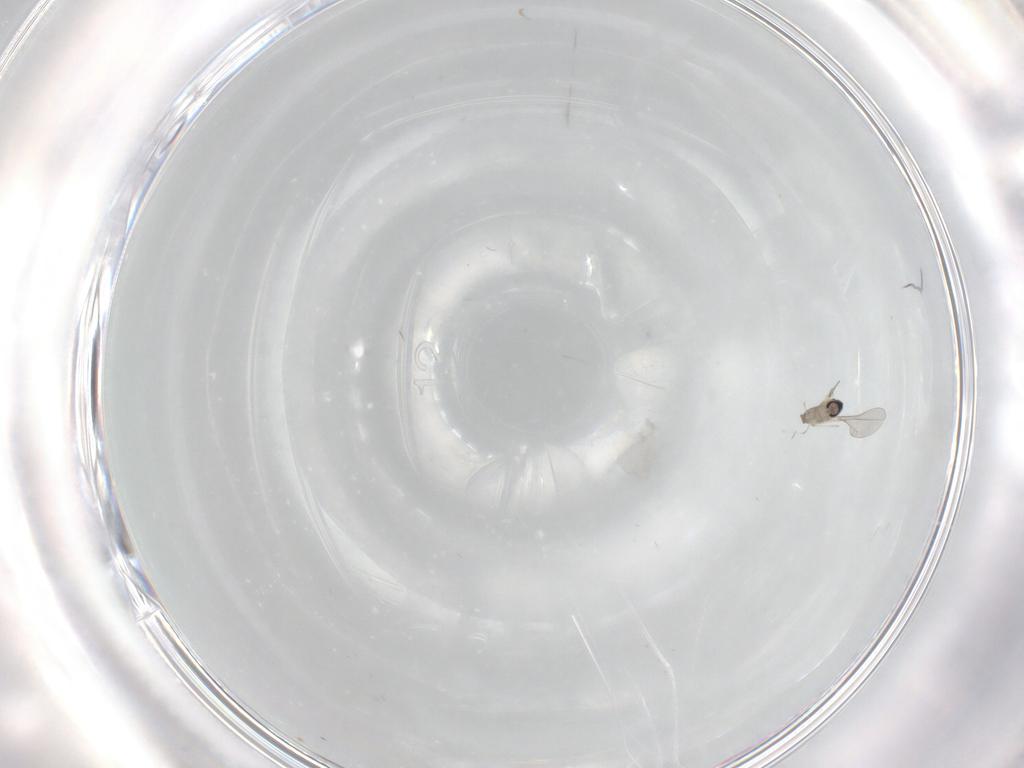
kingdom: Animalia
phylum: Arthropoda
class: Insecta
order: Diptera
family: Cecidomyiidae
